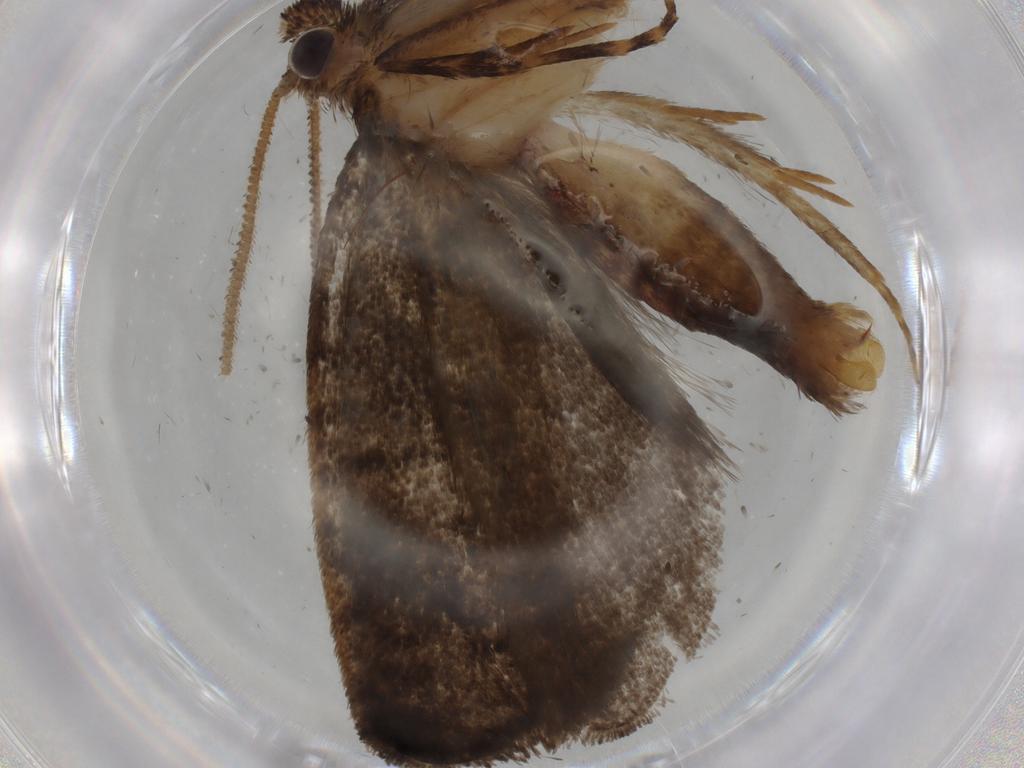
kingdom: Animalia
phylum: Arthropoda
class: Insecta
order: Lepidoptera
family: Tineidae
